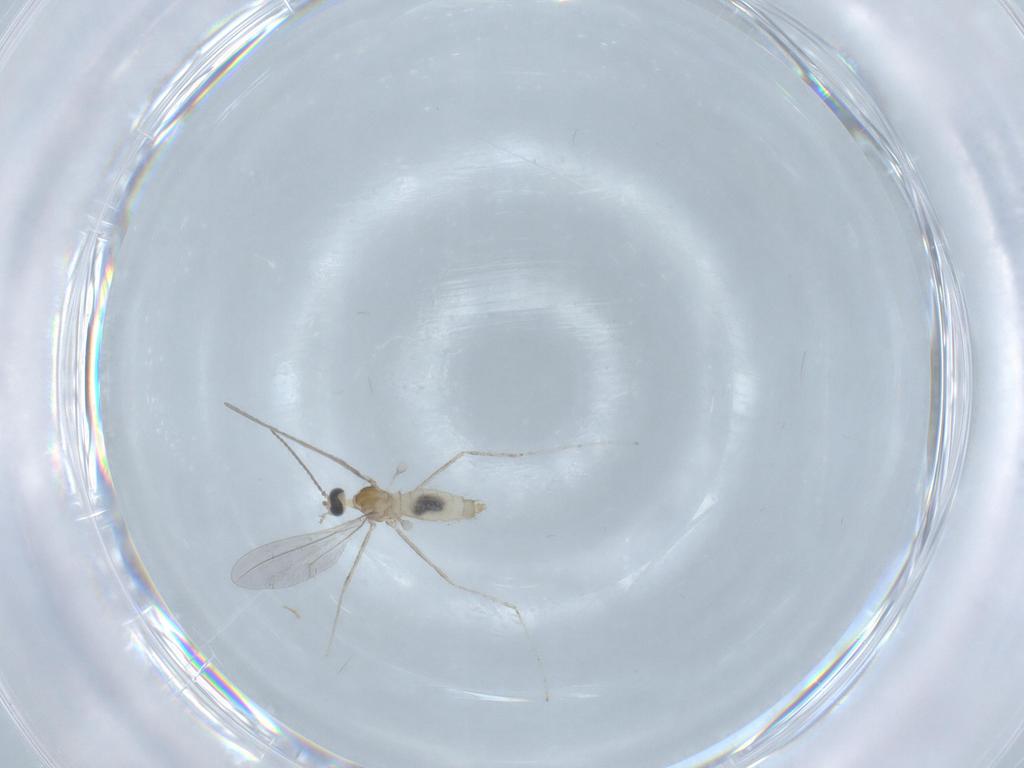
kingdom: Animalia
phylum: Arthropoda
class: Insecta
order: Diptera
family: Cecidomyiidae
